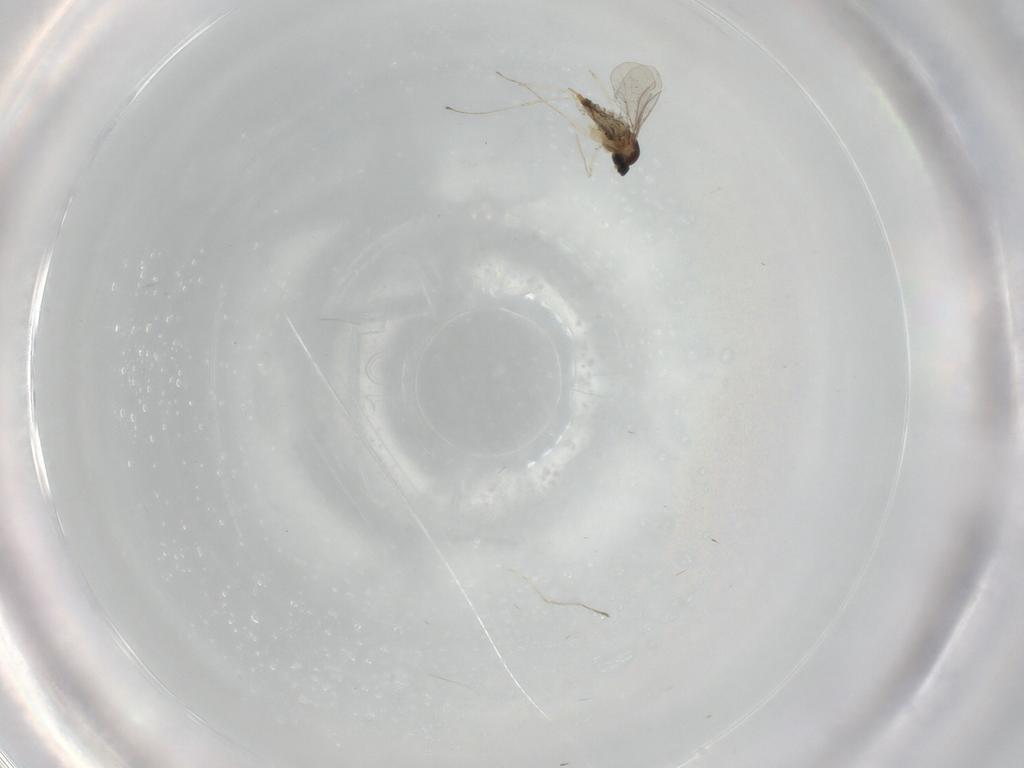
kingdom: Animalia
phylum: Arthropoda
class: Insecta
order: Diptera
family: Cecidomyiidae
